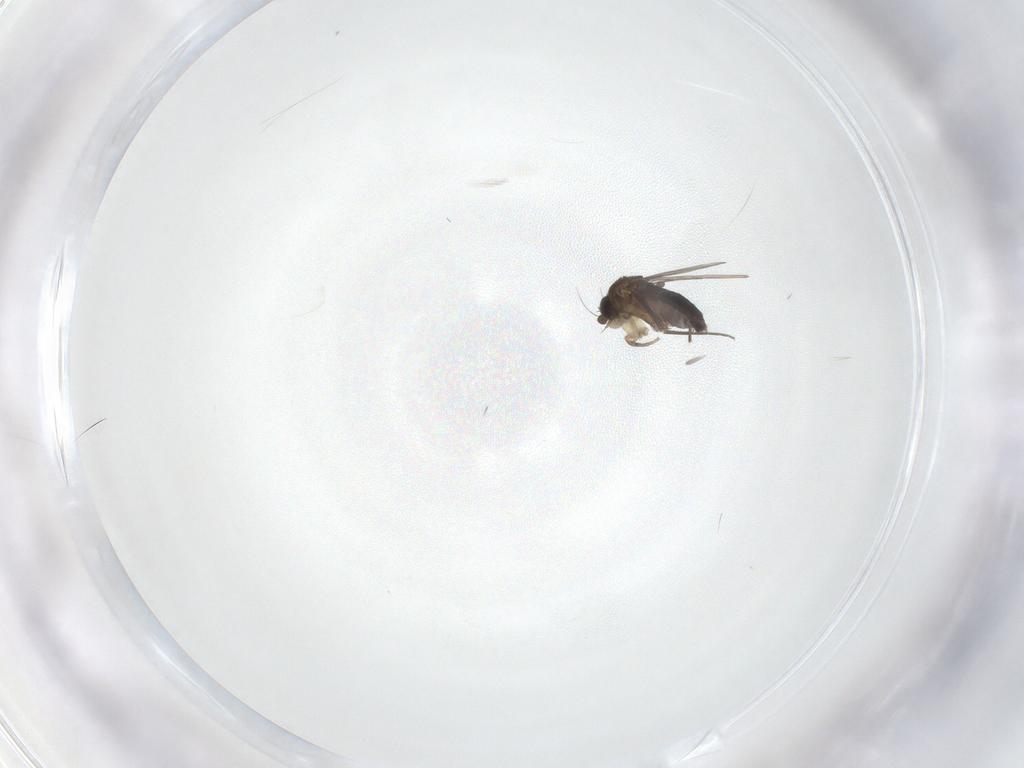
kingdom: Animalia
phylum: Arthropoda
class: Insecta
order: Diptera
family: Phoridae
